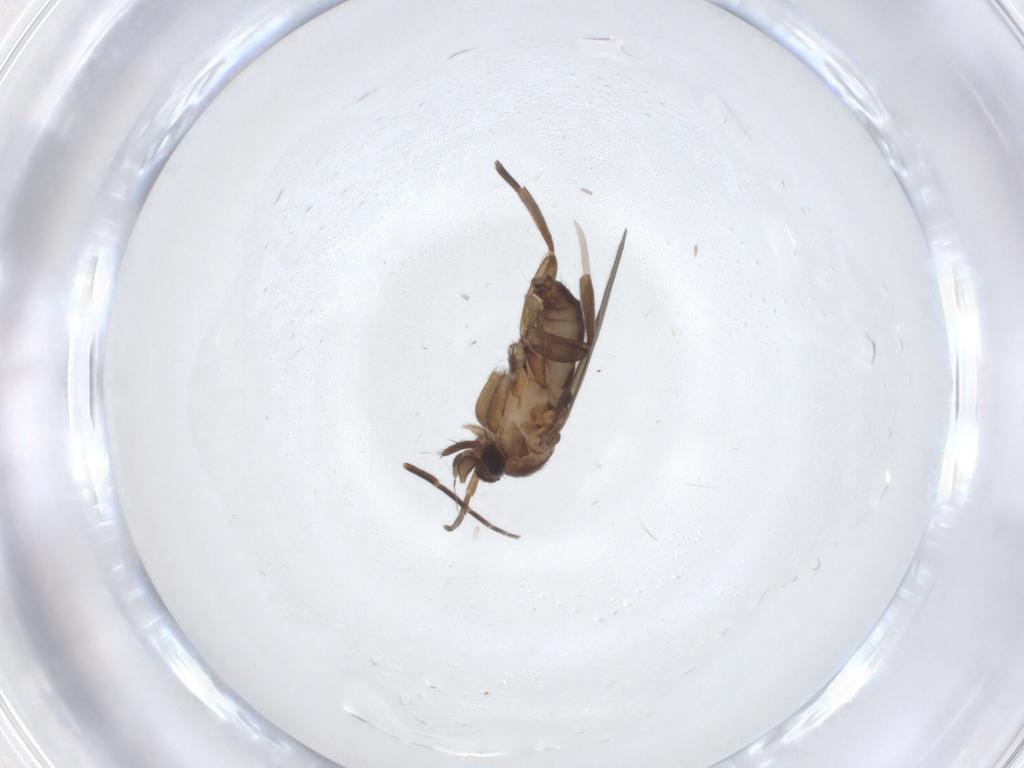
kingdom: Animalia
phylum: Arthropoda
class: Insecta
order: Diptera
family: Phoridae
